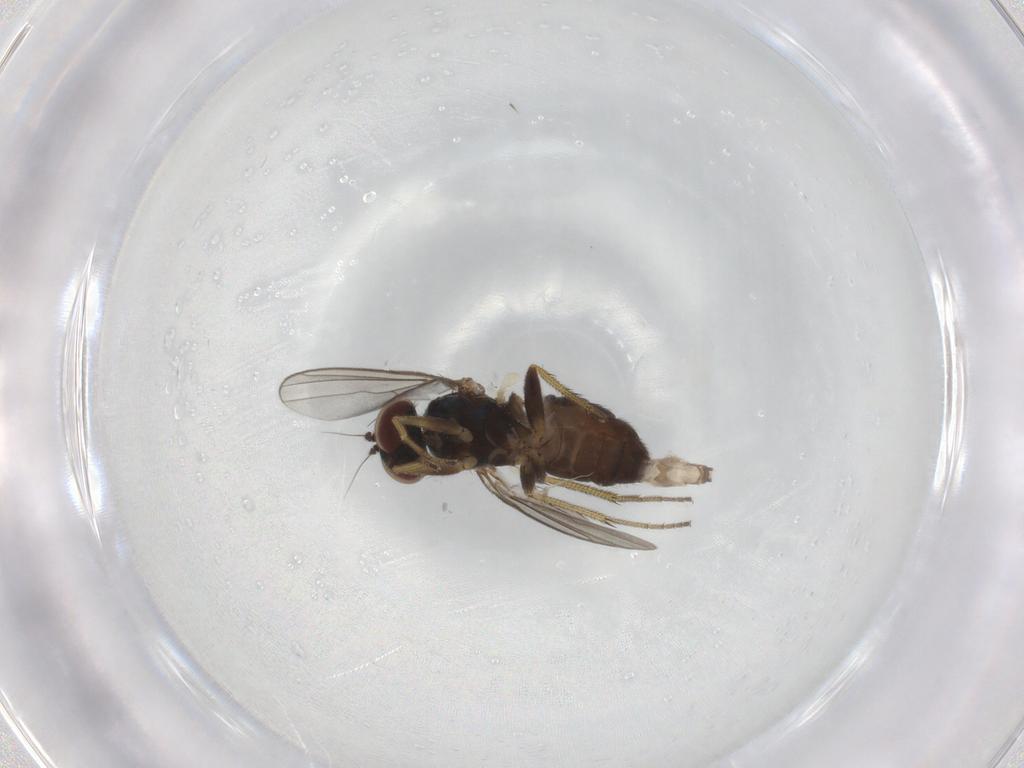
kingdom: Animalia
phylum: Arthropoda
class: Insecta
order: Diptera
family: Dolichopodidae
